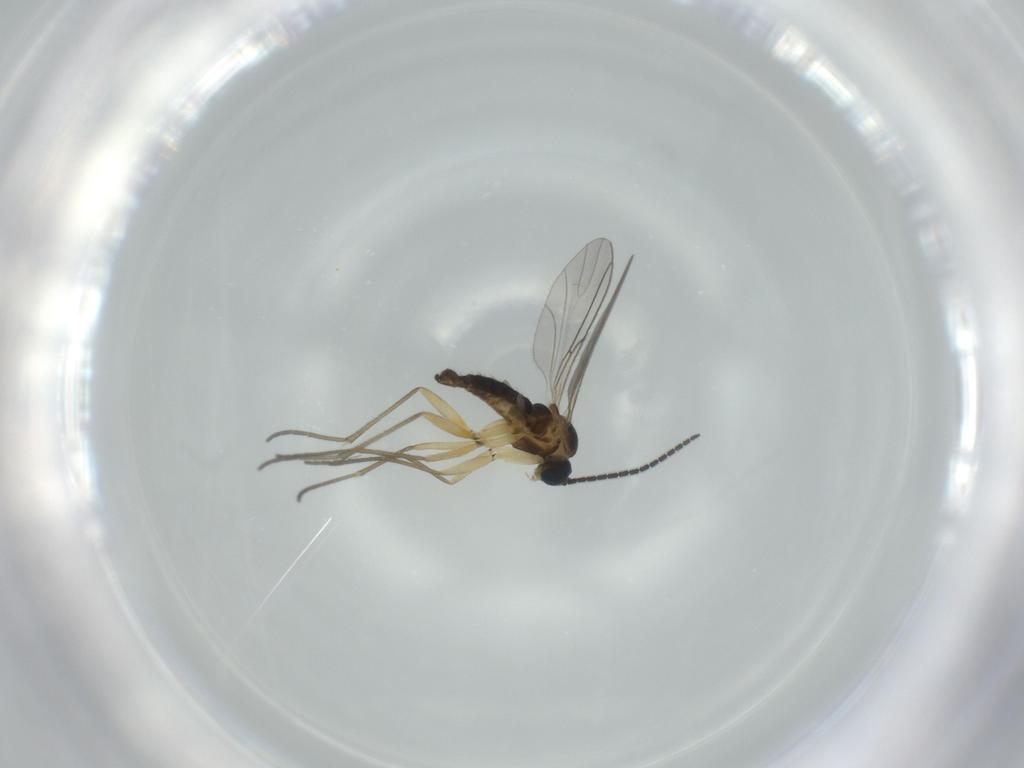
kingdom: Animalia
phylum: Arthropoda
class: Insecta
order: Diptera
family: Sciaridae
